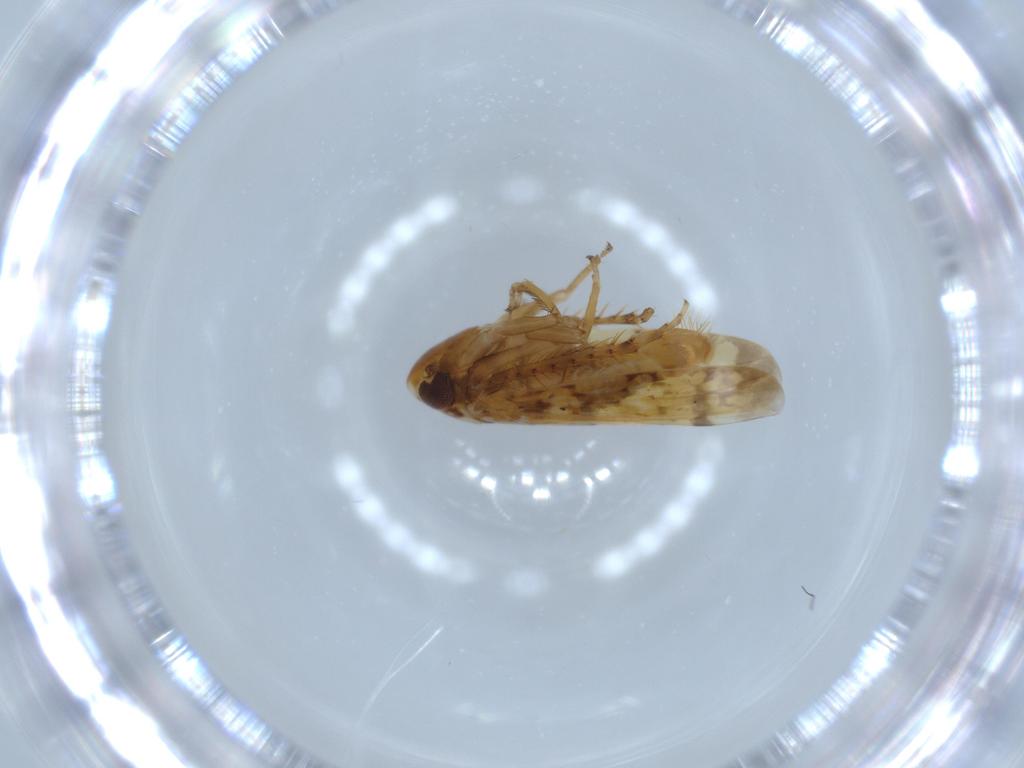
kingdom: Animalia
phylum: Arthropoda
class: Insecta
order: Hemiptera
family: Cicadellidae
